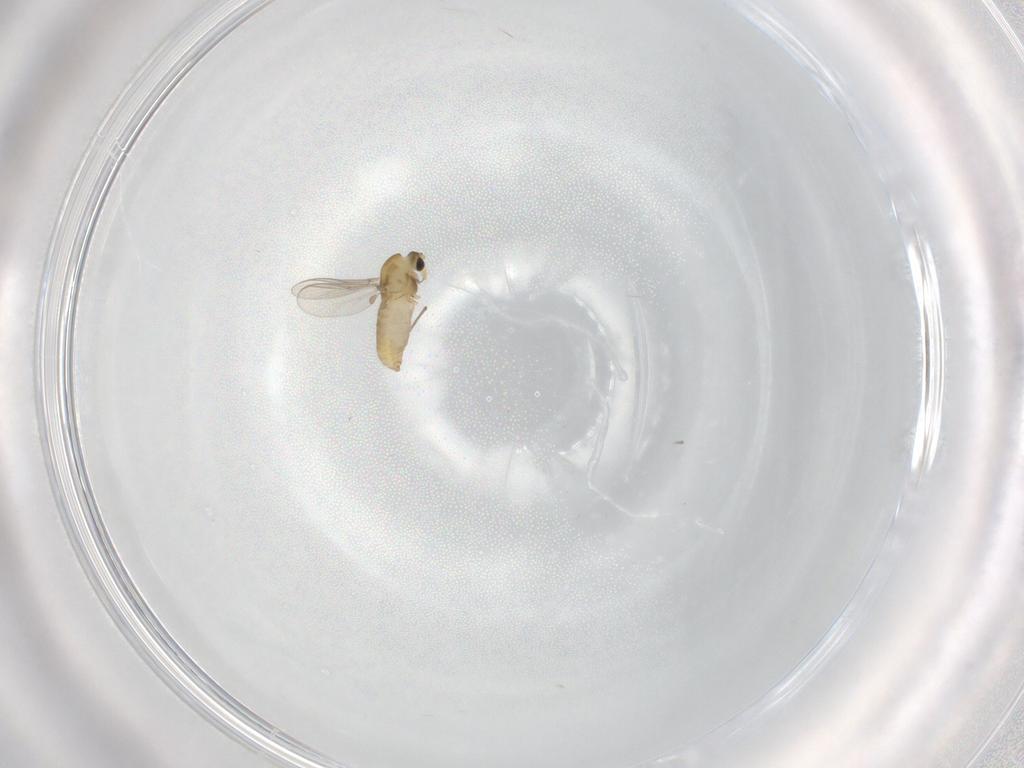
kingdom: Animalia
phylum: Arthropoda
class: Insecta
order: Diptera
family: Chironomidae
